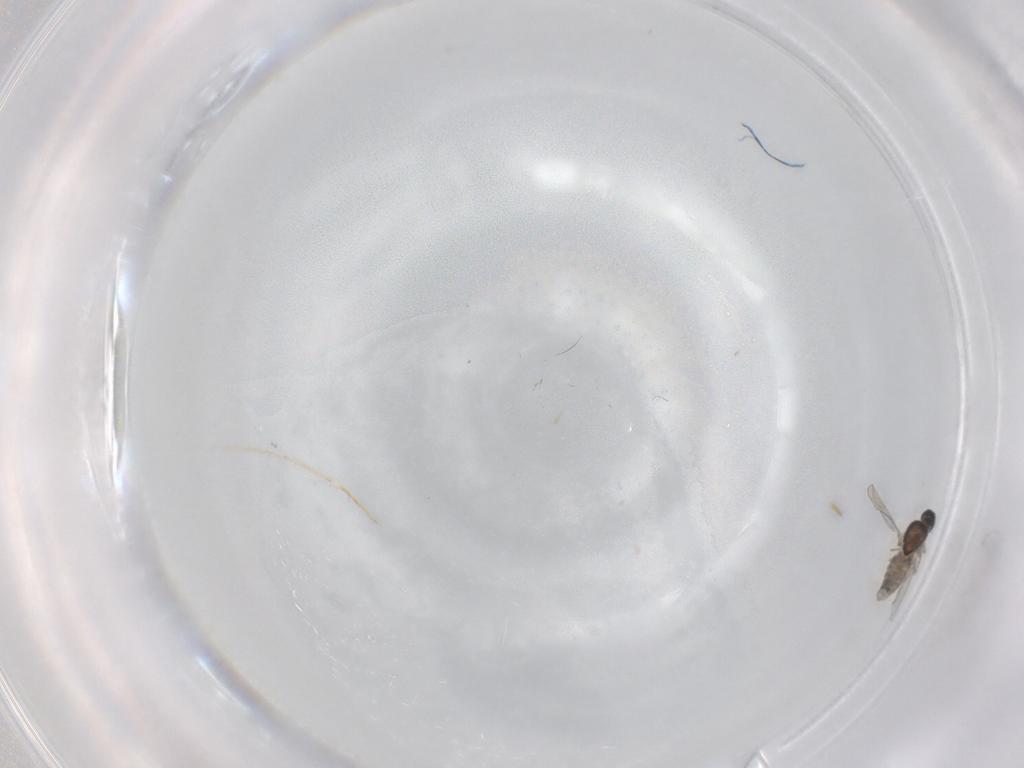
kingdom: Animalia
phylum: Arthropoda
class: Insecta
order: Diptera
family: Ceratopogonidae
